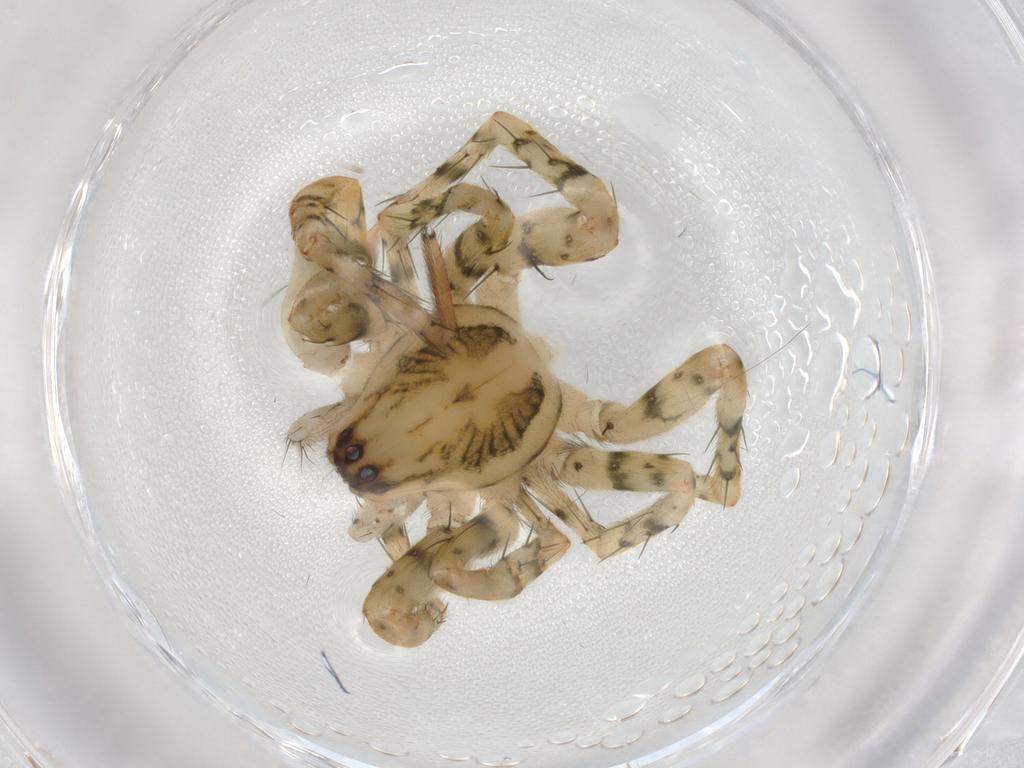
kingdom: Animalia
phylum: Arthropoda
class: Arachnida
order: Araneae
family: Anyphaenidae
